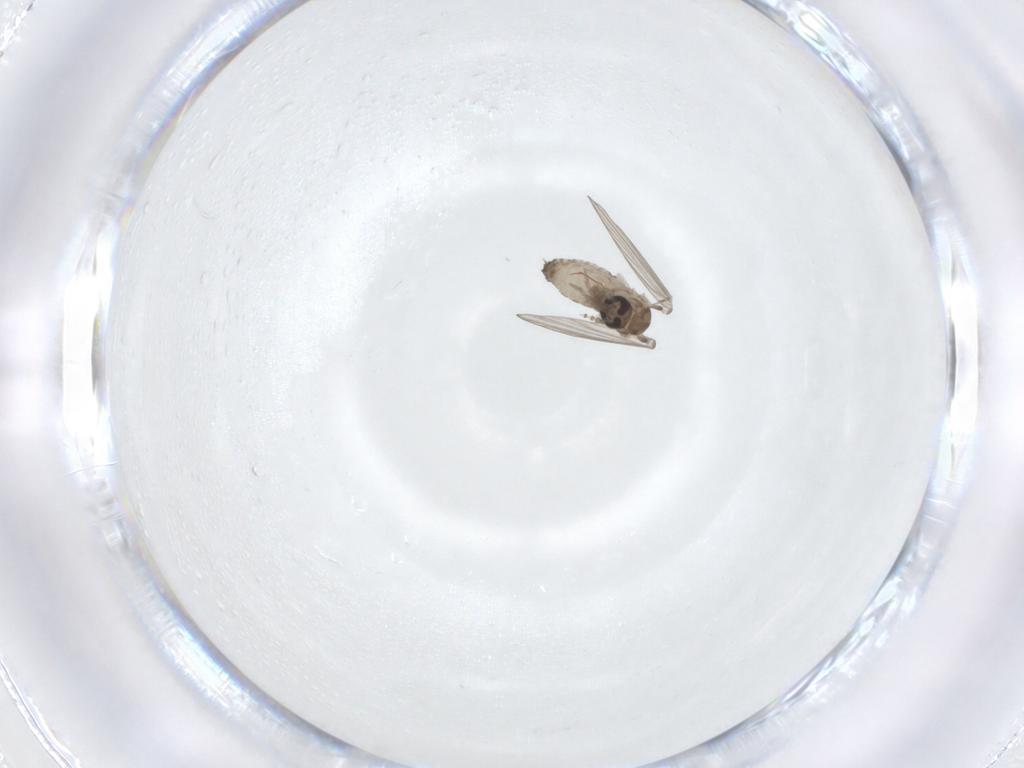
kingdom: Animalia
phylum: Arthropoda
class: Insecta
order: Diptera
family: Psychodidae
